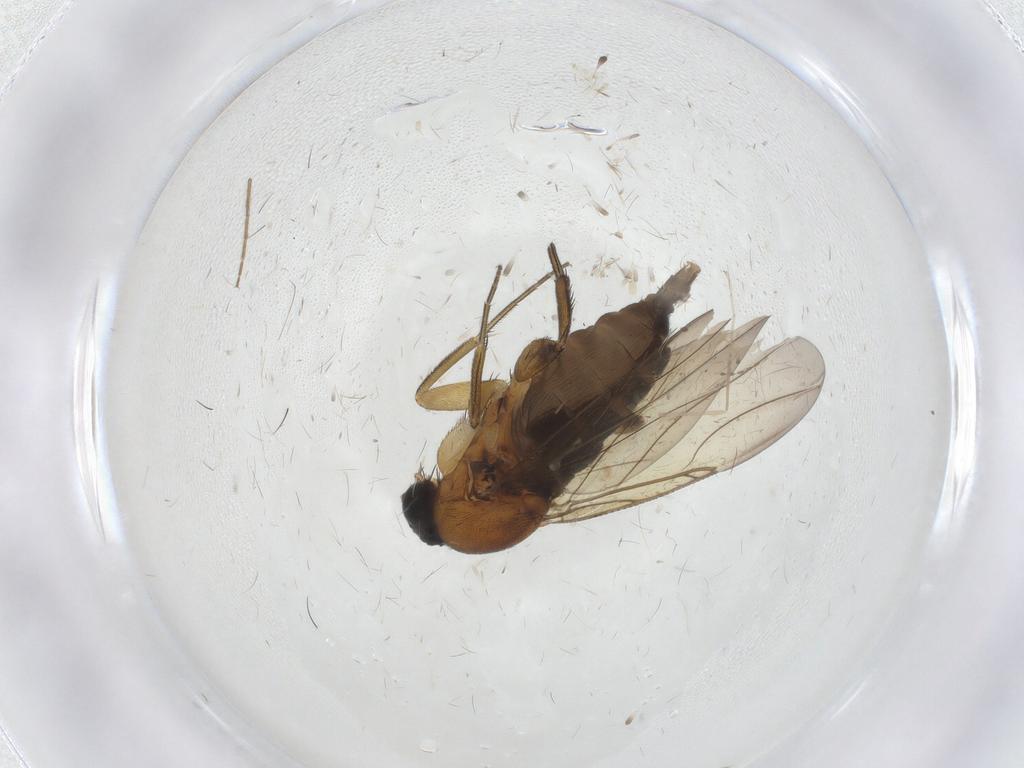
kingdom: Animalia
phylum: Arthropoda
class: Insecta
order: Diptera
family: Phoridae
